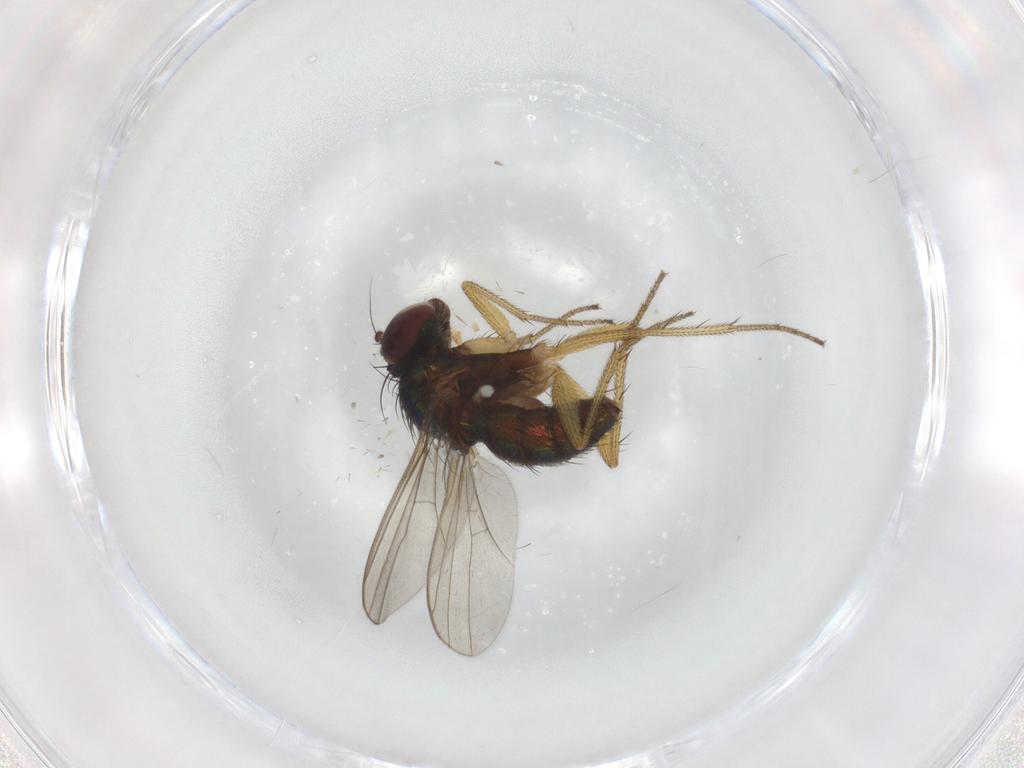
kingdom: Animalia
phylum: Arthropoda
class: Insecta
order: Diptera
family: Dolichopodidae
